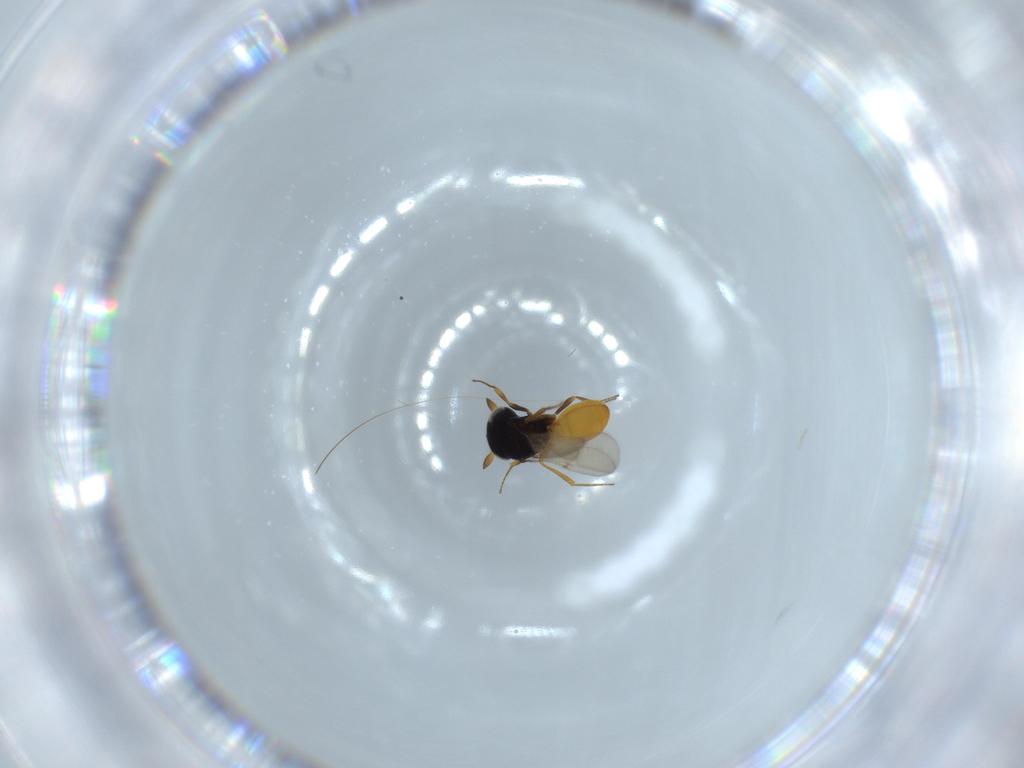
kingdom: Animalia
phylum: Arthropoda
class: Insecta
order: Hymenoptera
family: Scelionidae
